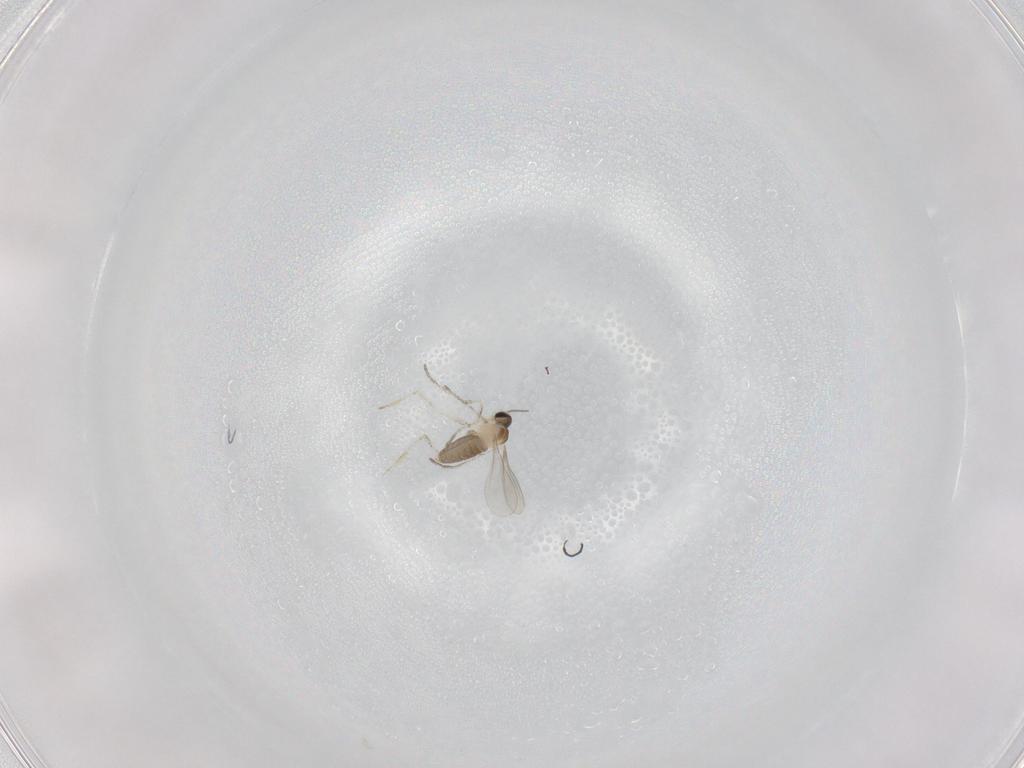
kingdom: Animalia
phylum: Arthropoda
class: Insecta
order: Diptera
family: Cecidomyiidae
